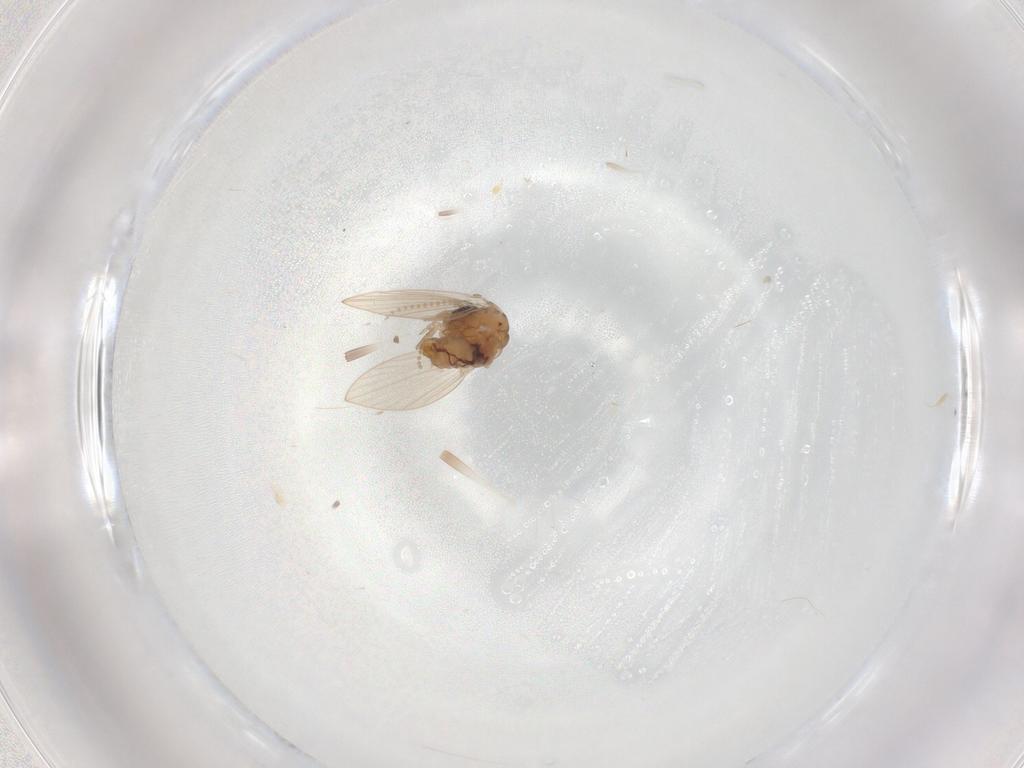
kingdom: Animalia
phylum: Arthropoda
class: Insecta
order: Diptera
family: Psychodidae
